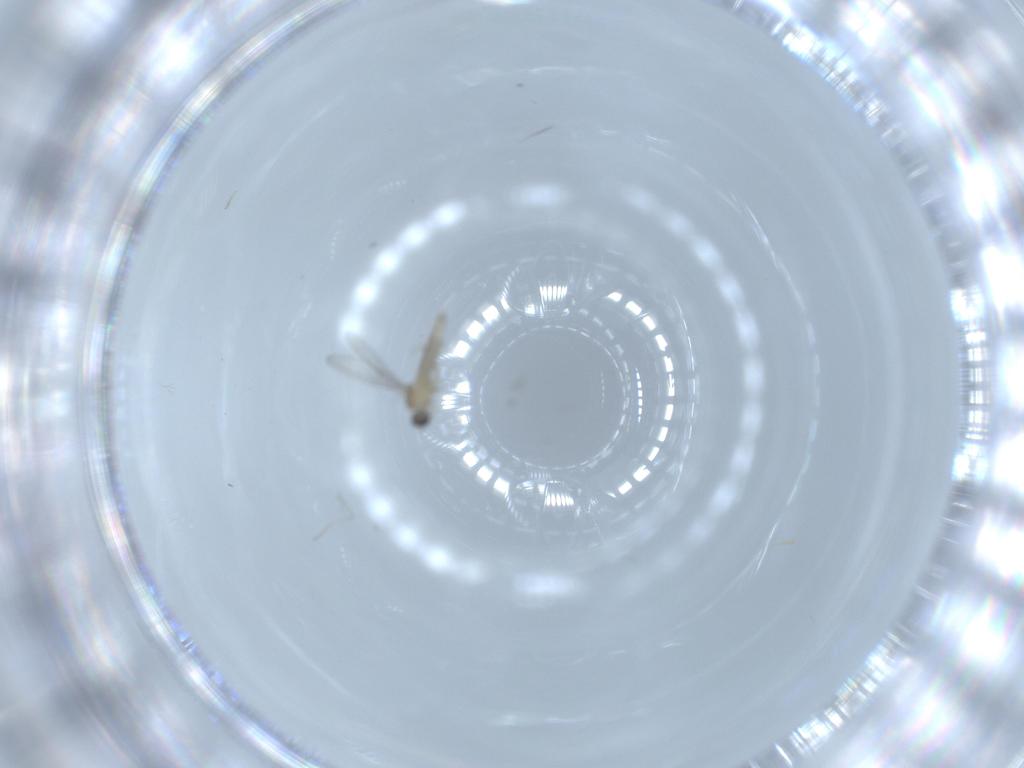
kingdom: Animalia
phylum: Arthropoda
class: Insecta
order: Diptera
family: Cecidomyiidae
